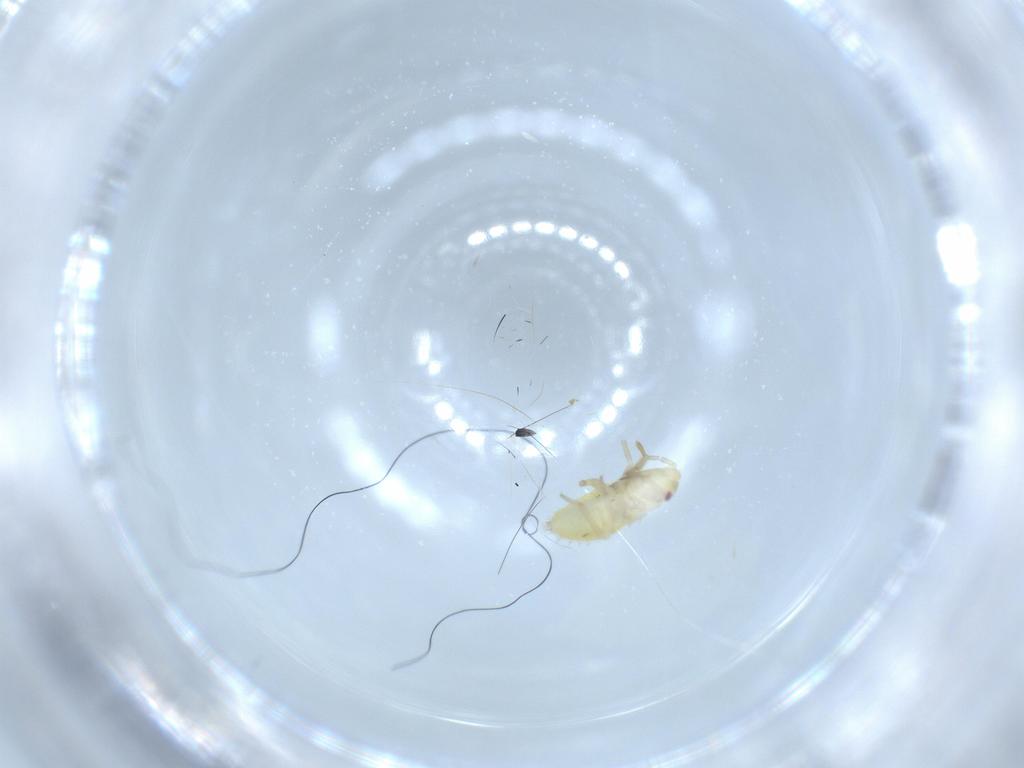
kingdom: Animalia
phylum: Arthropoda
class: Insecta
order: Hemiptera
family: Miridae
